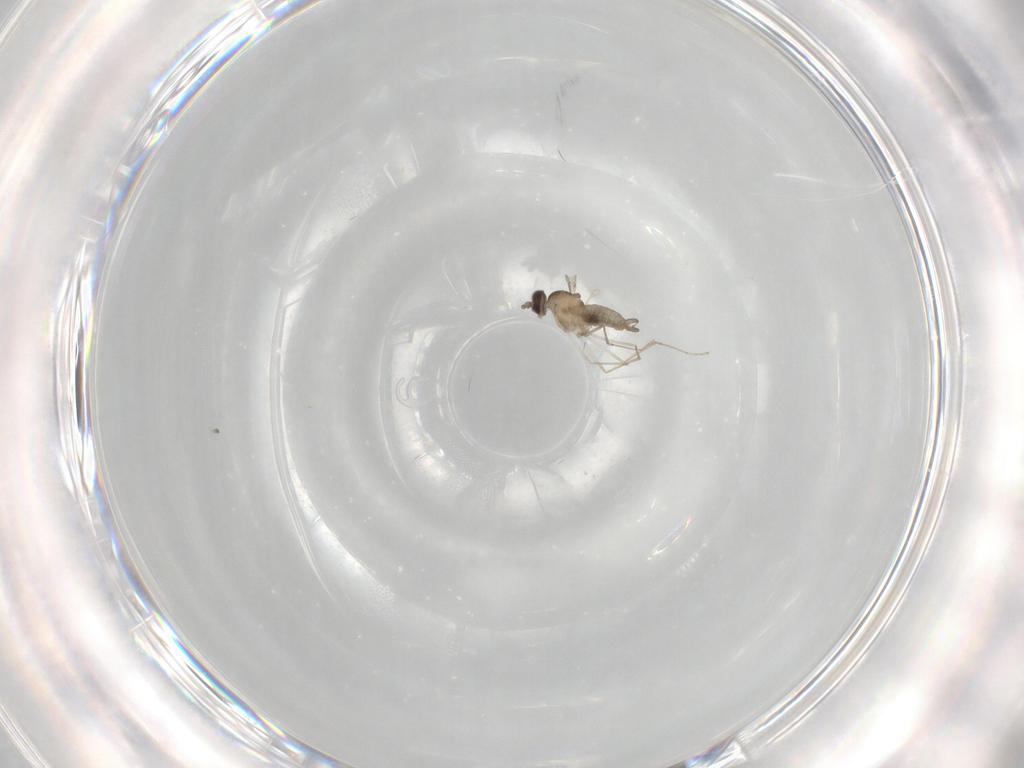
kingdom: Animalia
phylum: Arthropoda
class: Insecta
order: Diptera
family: Cecidomyiidae
